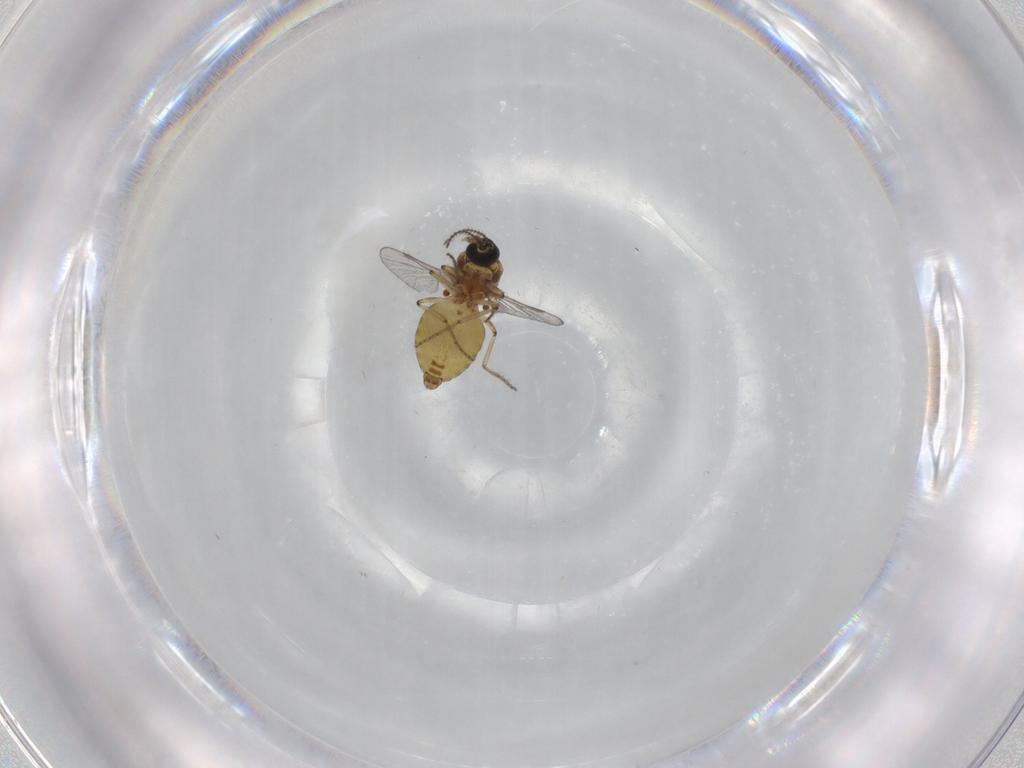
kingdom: Animalia
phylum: Arthropoda
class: Insecta
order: Diptera
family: Ceratopogonidae
